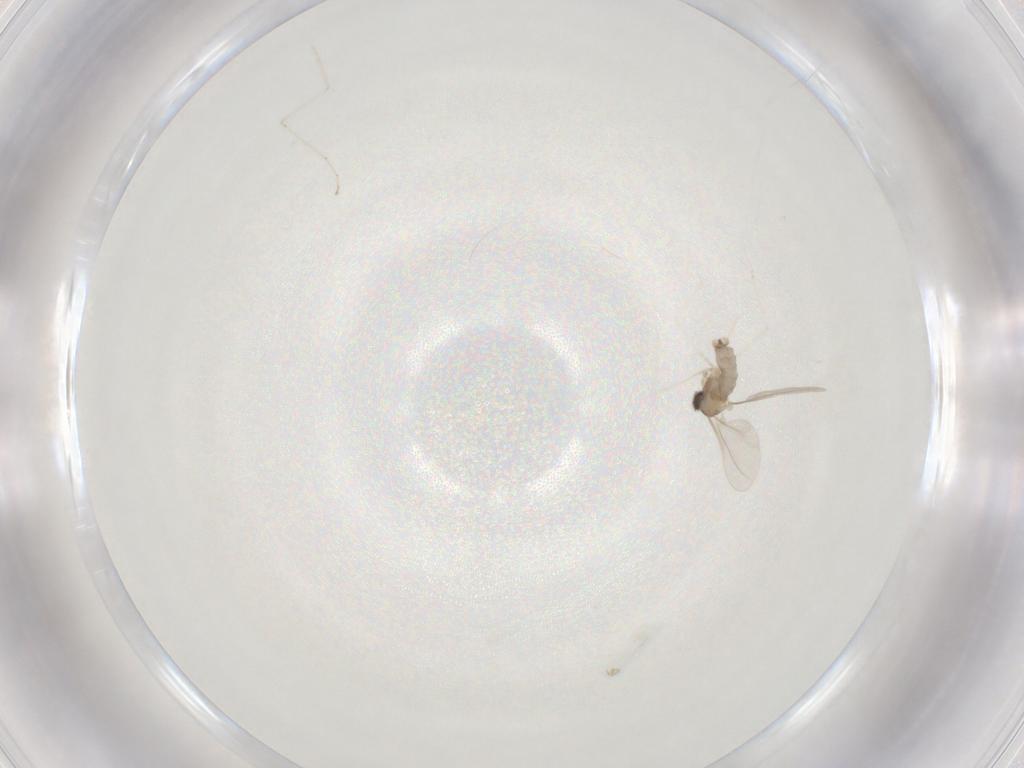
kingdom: Animalia
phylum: Arthropoda
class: Insecta
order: Diptera
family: Cecidomyiidae
